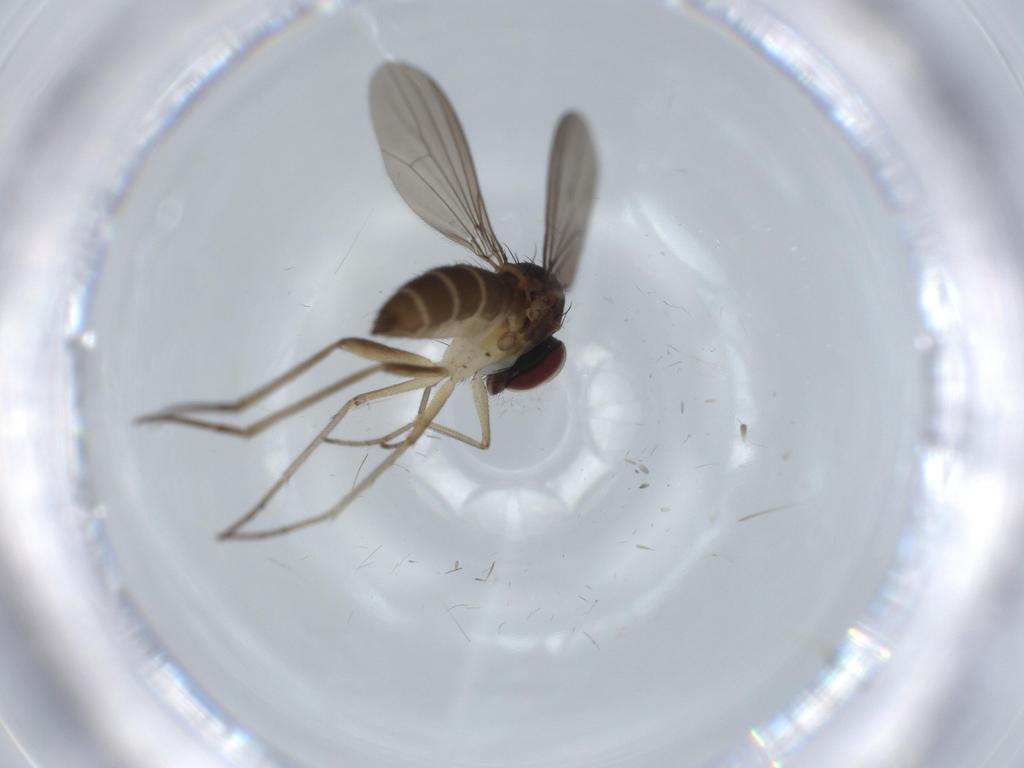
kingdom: Animalia
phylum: Arthropoda
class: Insecta
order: Diptera
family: Dolichopodidae
